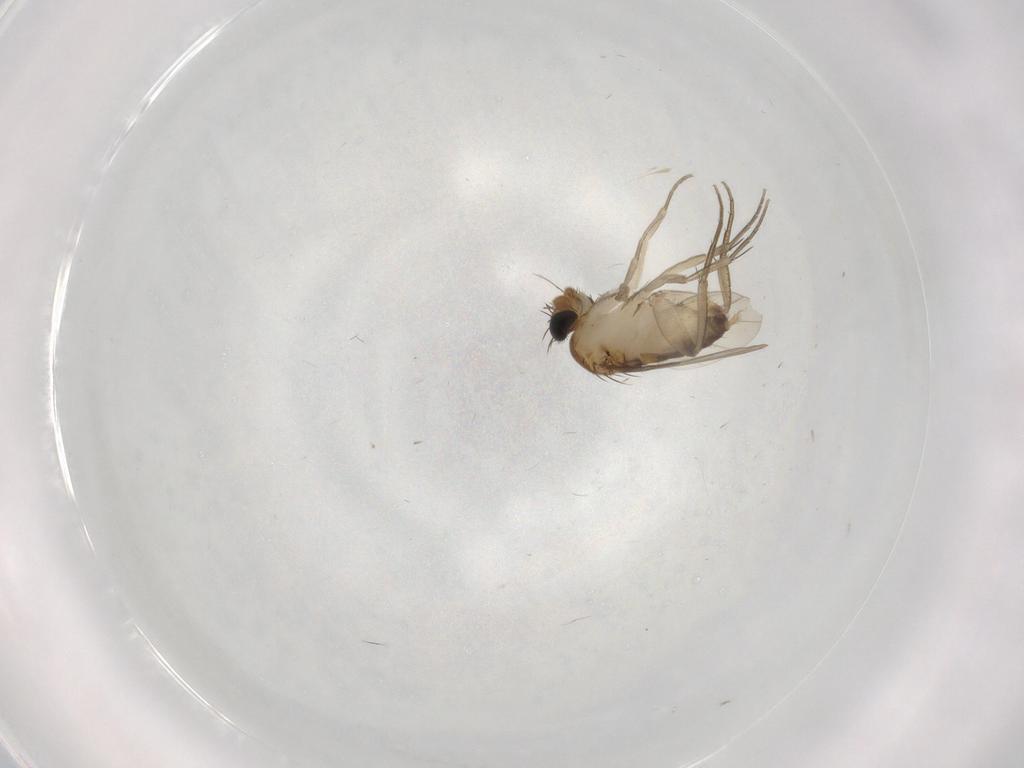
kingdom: Animalia
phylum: Arthropoda
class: Insecta
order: Diptera
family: Phoridae
